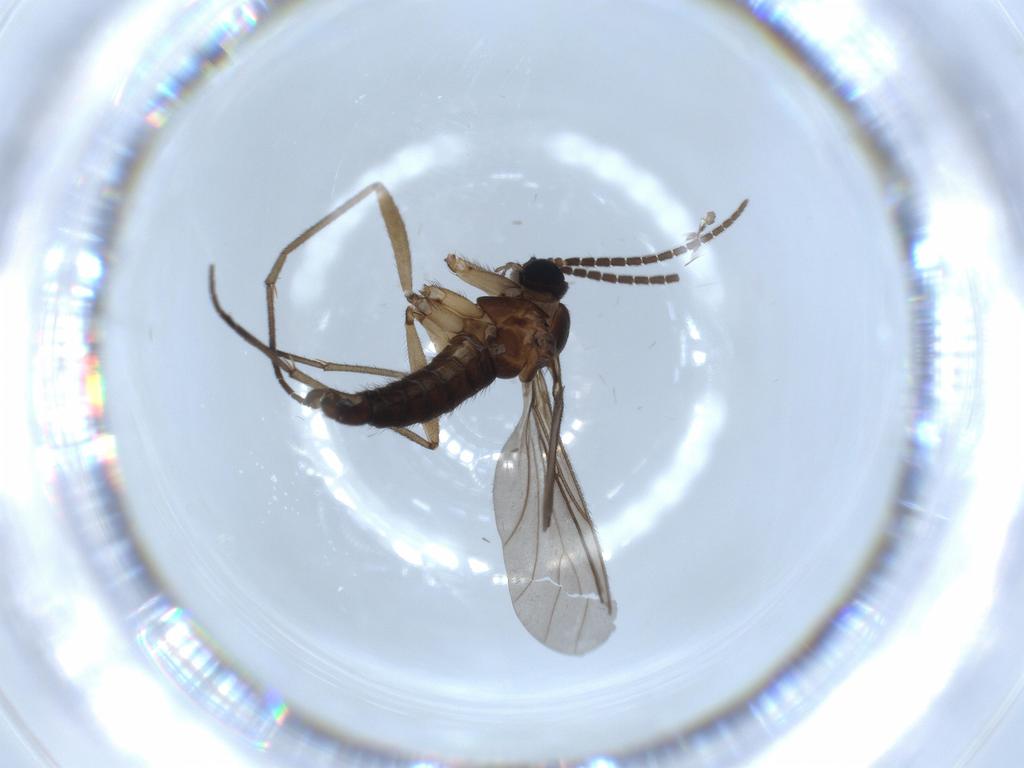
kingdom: Animalia
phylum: Arthropoda
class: Insecta
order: Diptera
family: Sciaridae
